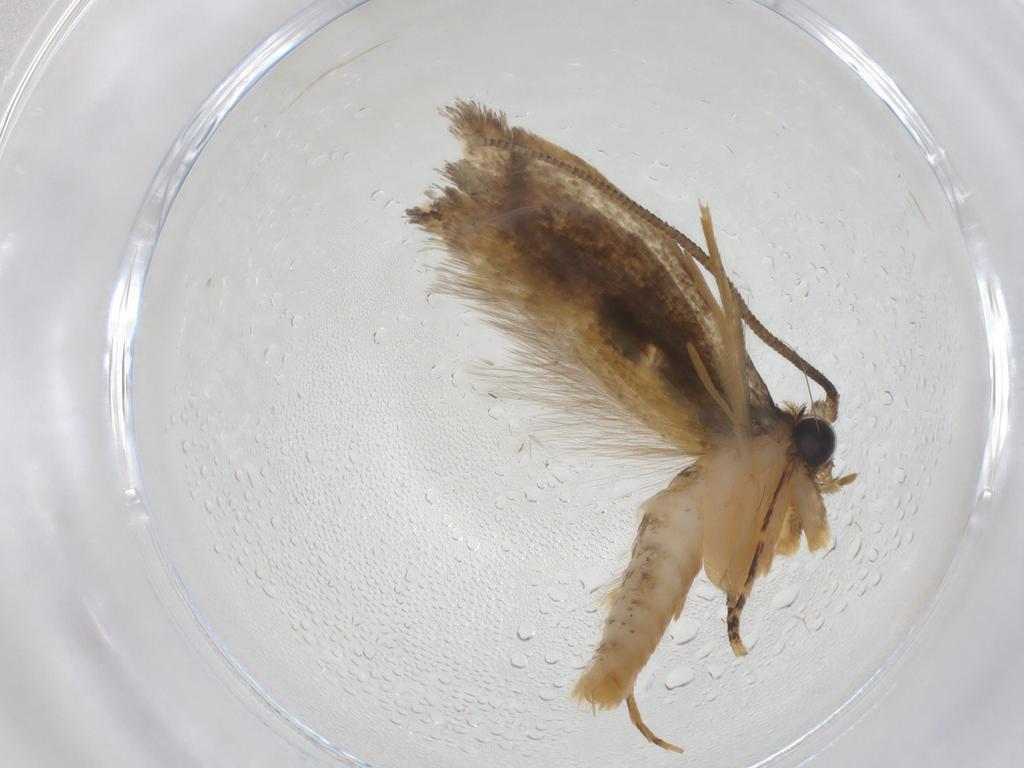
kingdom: Animalia
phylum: Arthropoda
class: Insecta
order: Lepidoptera
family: Tineidae
